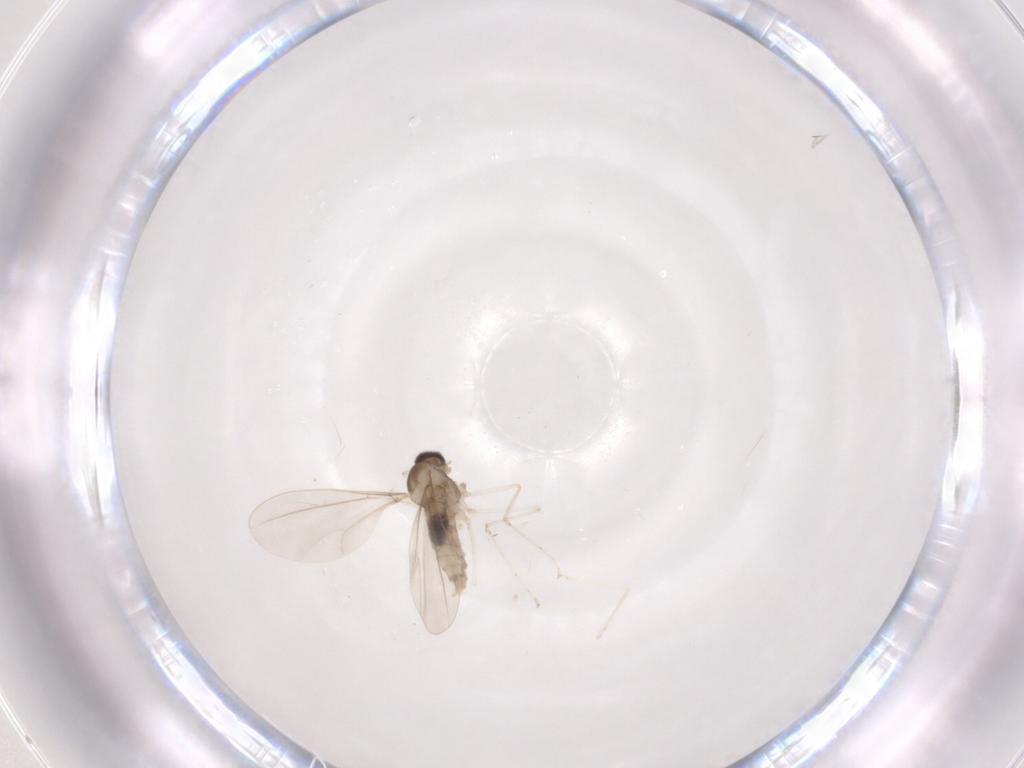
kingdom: Animalia
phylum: Arthropoda
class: Insecta
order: Diptera
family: Cecidomyiidae
